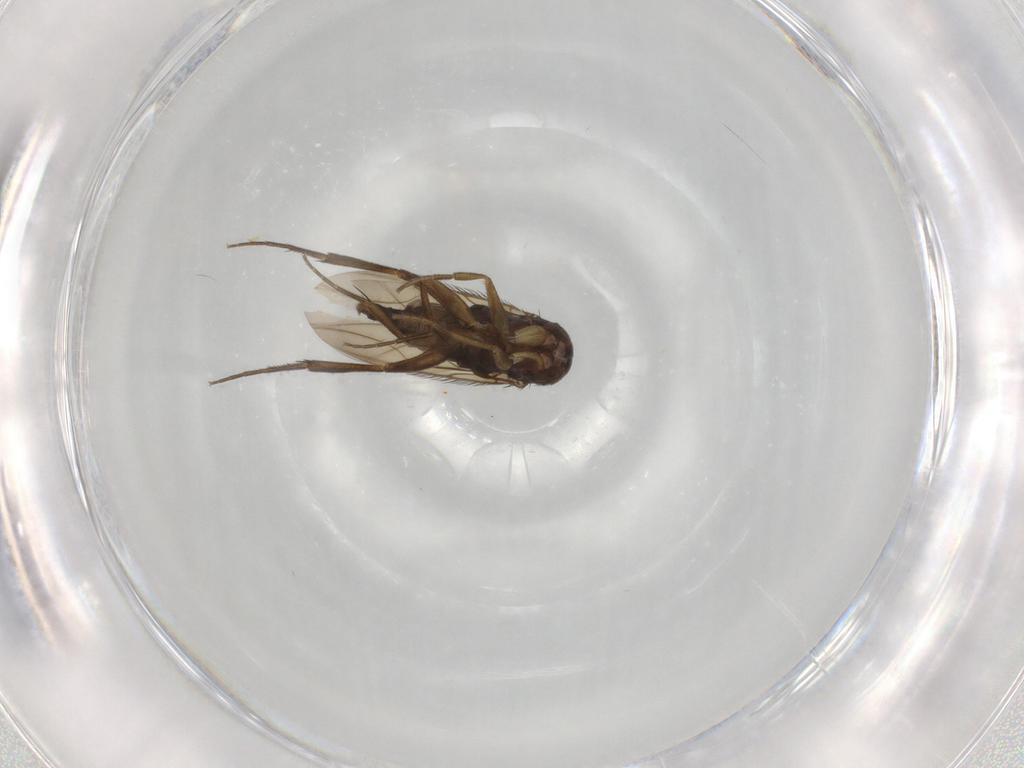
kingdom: Animalia
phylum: Arthropoda
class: Insecta
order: Diptera
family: Phoridae
